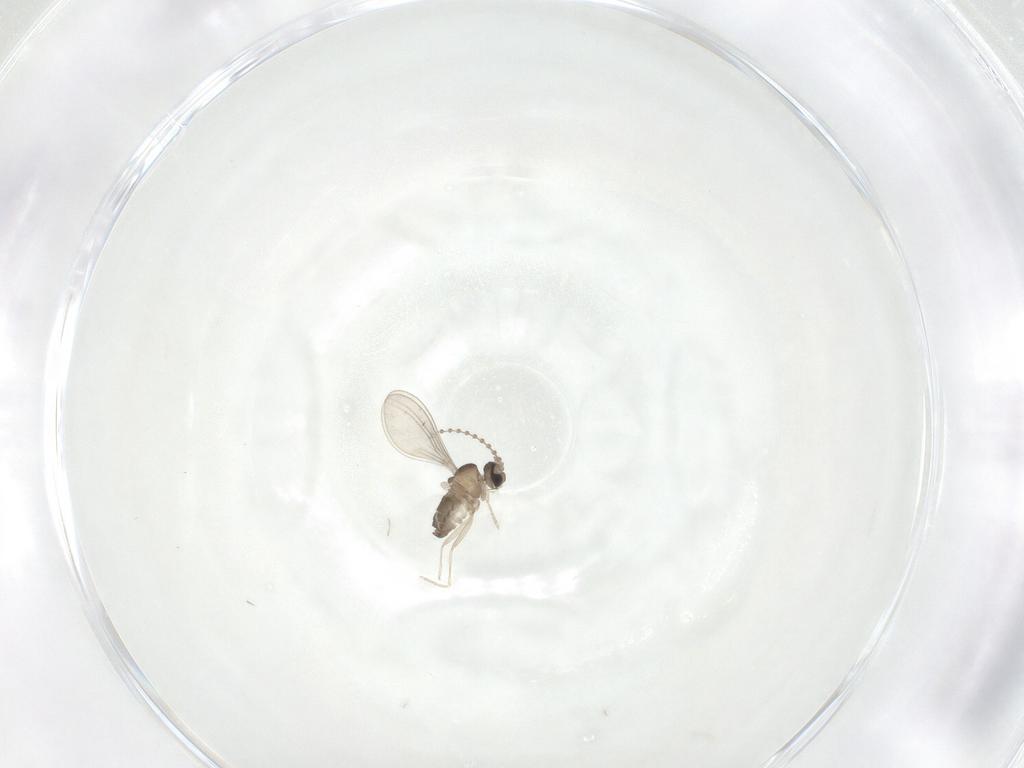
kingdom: Animalia
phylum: Arthropoda
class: Insecta
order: Diptera
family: Cecidomyiidae
